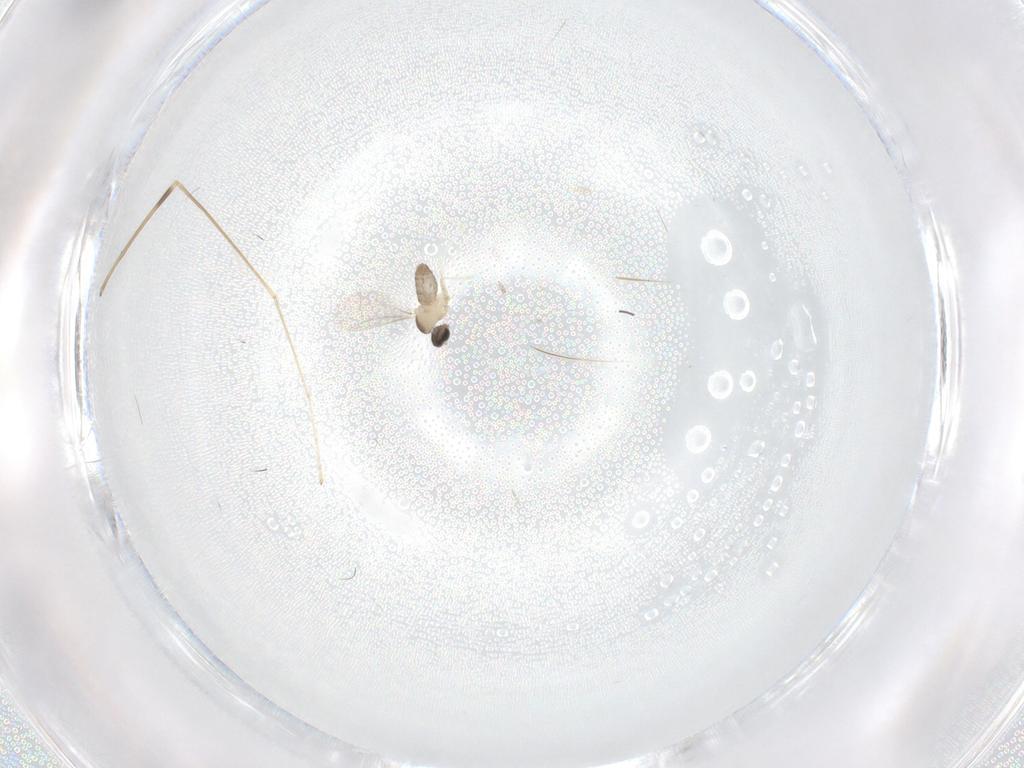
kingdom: Animalia
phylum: Arthropoda
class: Insecta
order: Diptera
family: Cecidomyiidae
